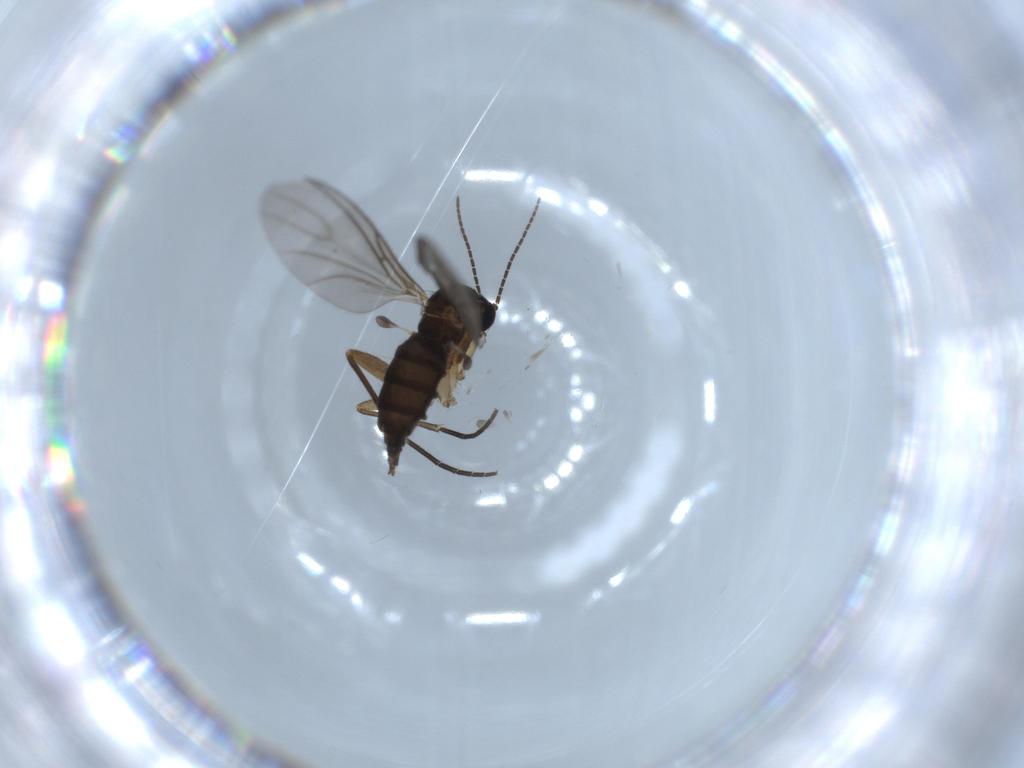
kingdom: Animalia
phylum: Arthropoda
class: Insecta
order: Diptera
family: Sciaridae
